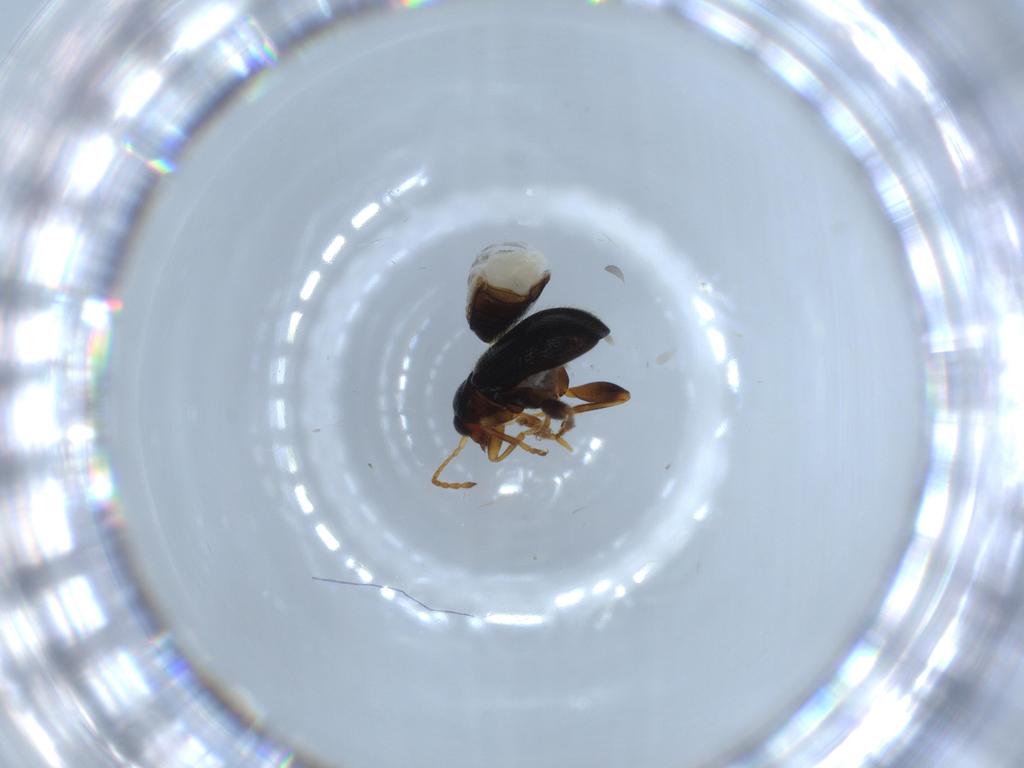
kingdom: Animalia
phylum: Arthropoda
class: Insecta
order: Coleoptera
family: Chrysomelidae
